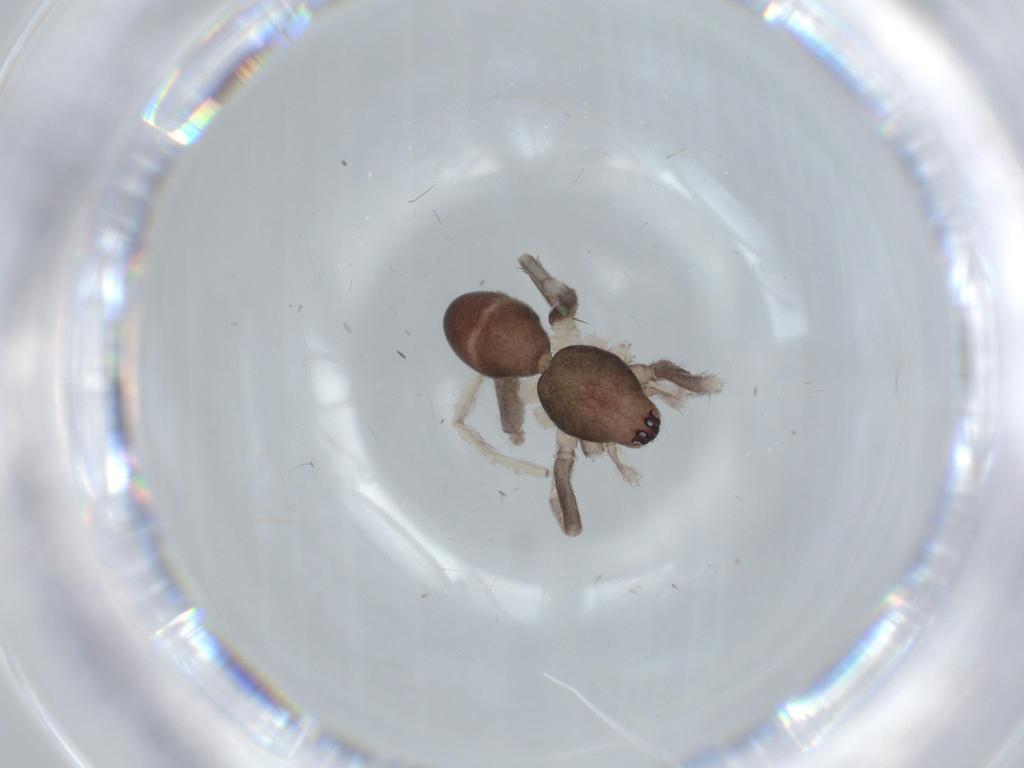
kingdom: Animalia
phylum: Arthropoda
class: Arachnida
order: Araneae
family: Corinnidae
